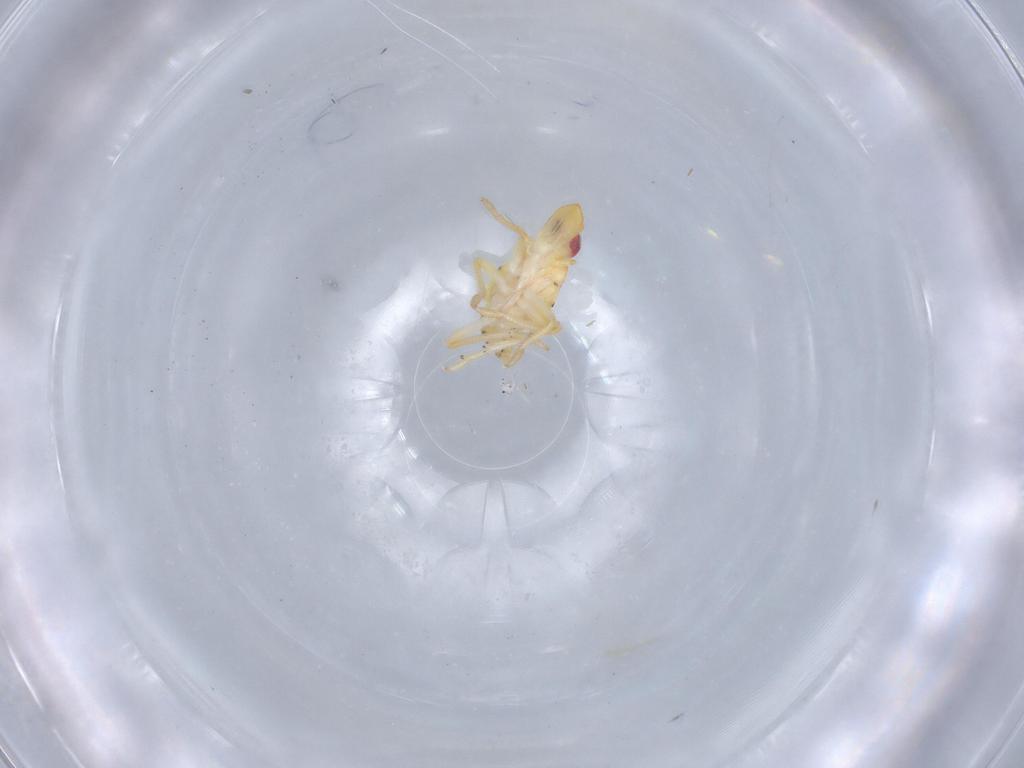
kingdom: Animalia
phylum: Arthropoda
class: Insecta
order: Hemiptera
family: Tropiduchidae
